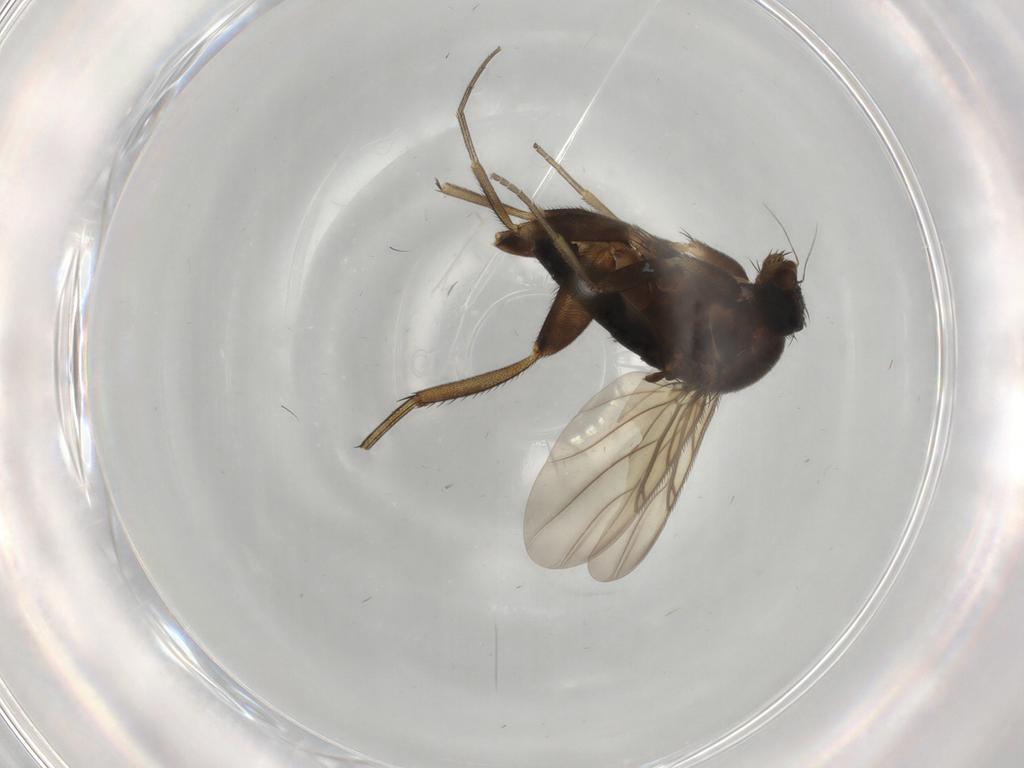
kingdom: Animalia
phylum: Arthropoda
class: Insecta
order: Diptera
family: Phoridae
